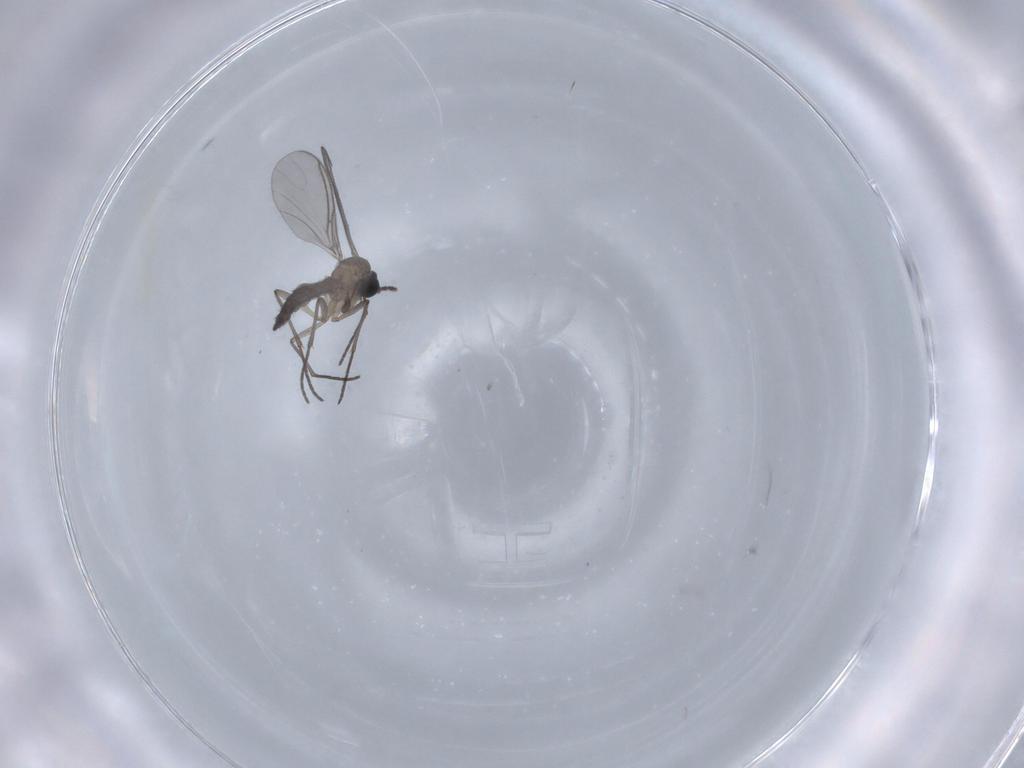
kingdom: Animalia
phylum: Arthropoda
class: Insecta
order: Diptera
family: Sciaridae
